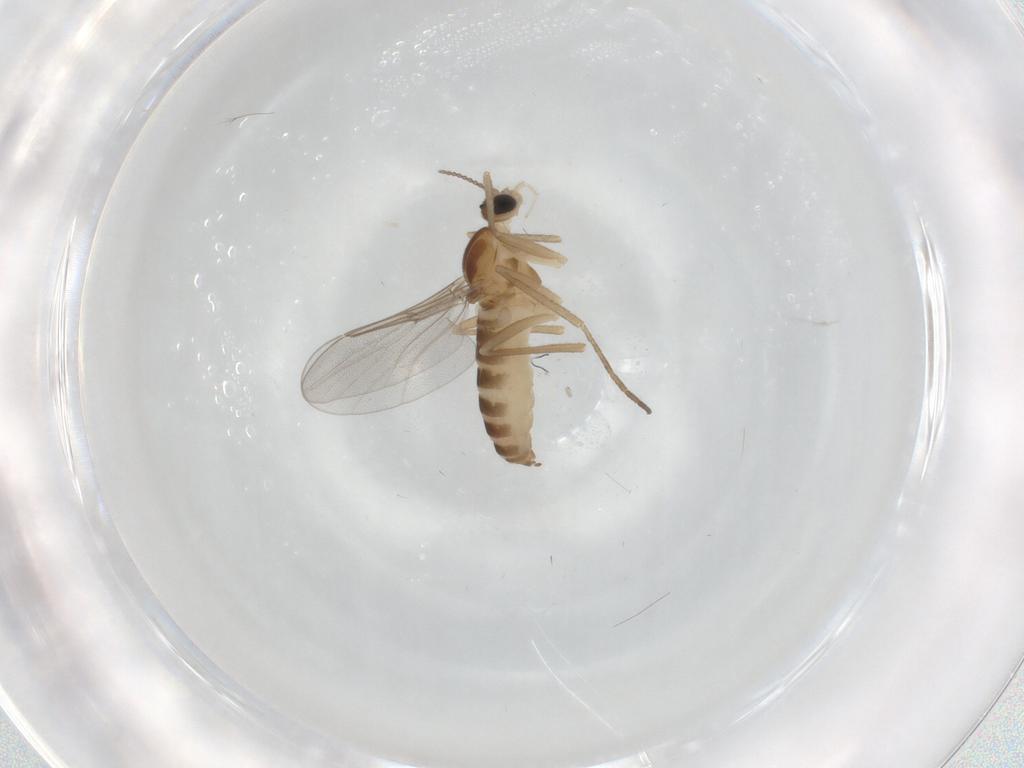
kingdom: Animalia
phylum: Arthropoda
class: Insecta
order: Diptera
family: Cecidomyiidae
